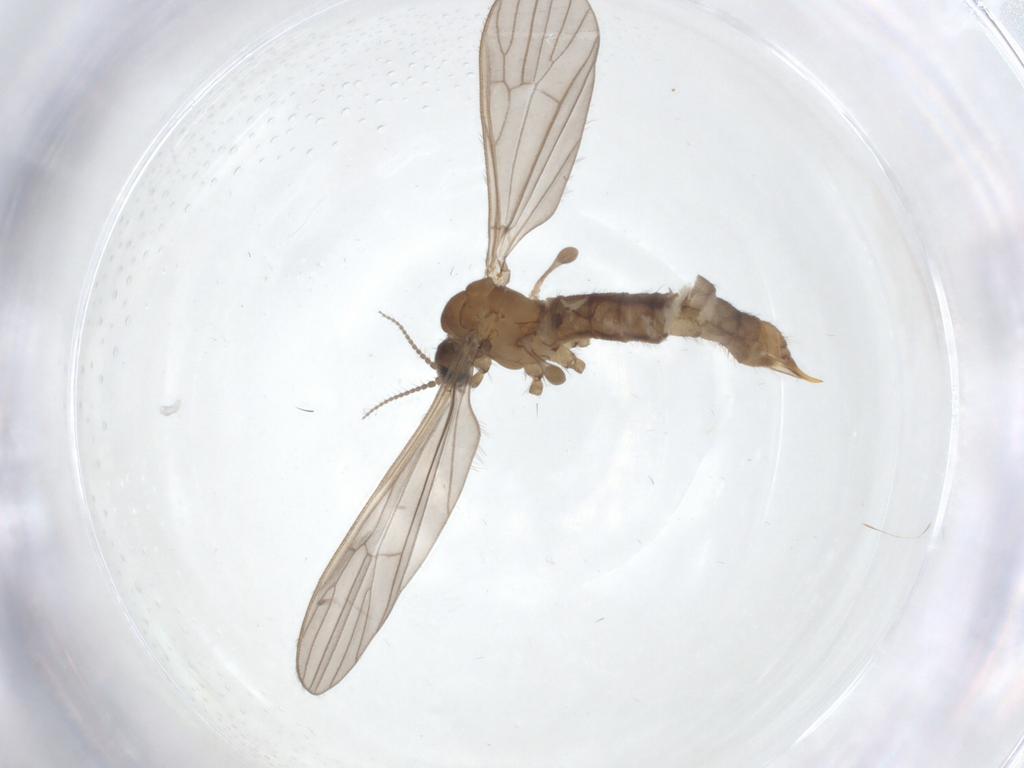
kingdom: Animalia
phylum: Arthropoda
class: Insecta
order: Diptera
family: Limoniidae
